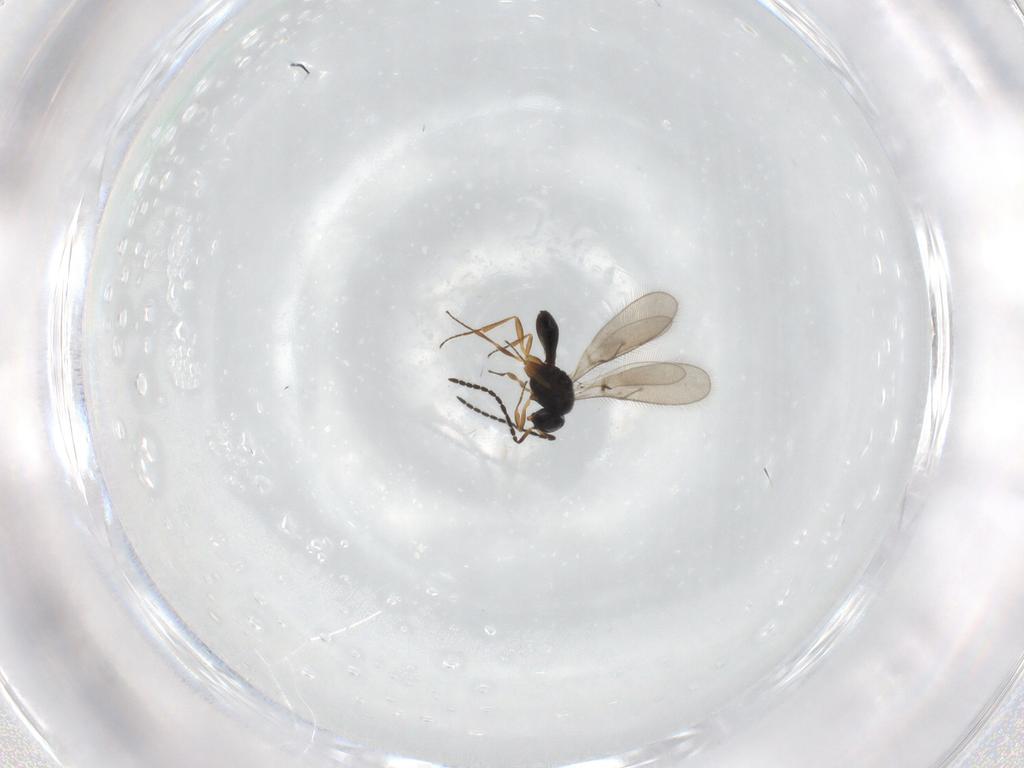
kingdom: Animalia
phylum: Arthropoda
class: Insecta
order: Hymenoptera
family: Scelionidae
